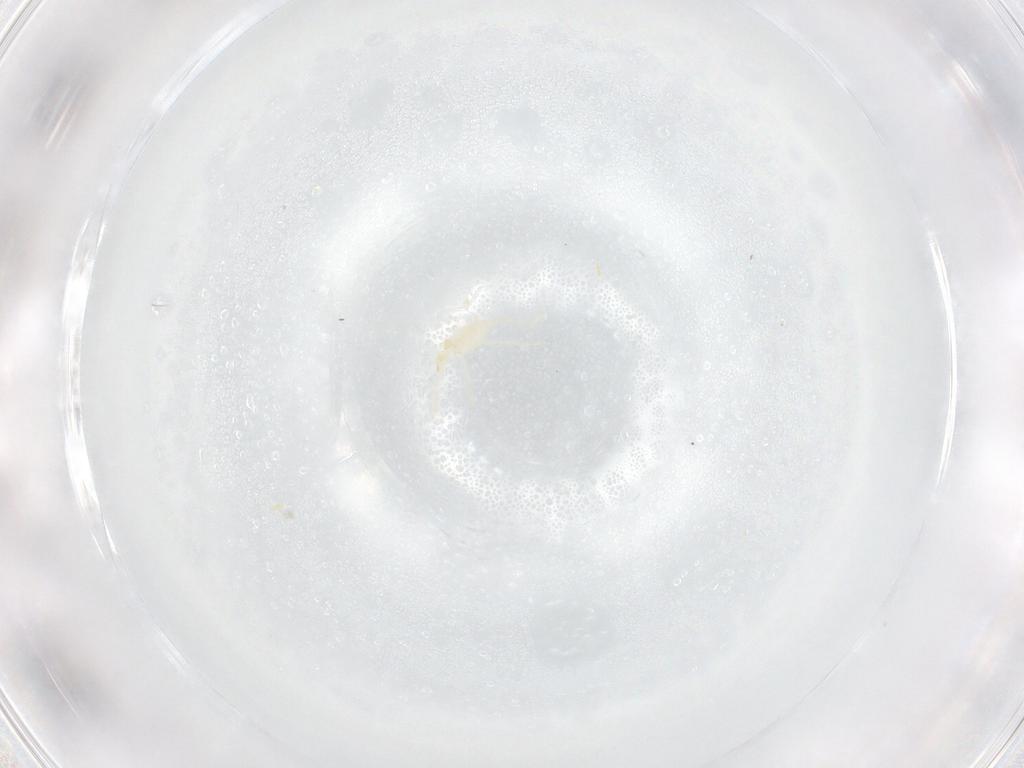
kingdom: Animalia
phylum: Arthropoda
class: Arachnida
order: Trombidiformes
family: Erythraeidae
